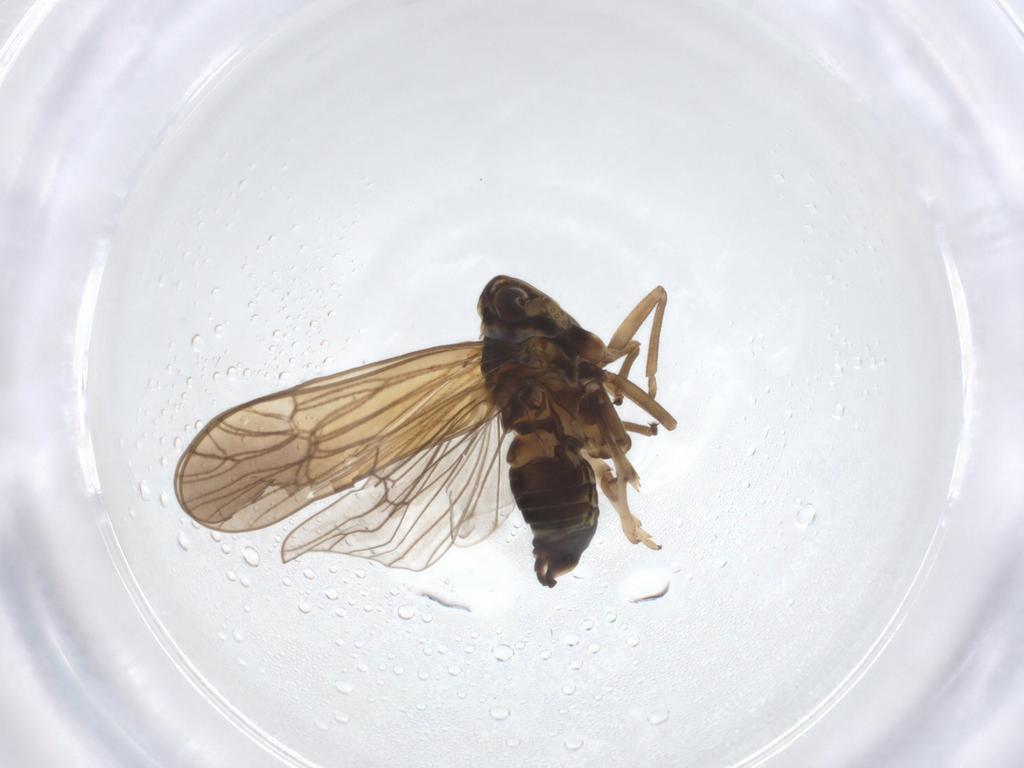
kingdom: Animalia
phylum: Arthropoda
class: Insecta
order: Hemiptera
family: Delphacidae
